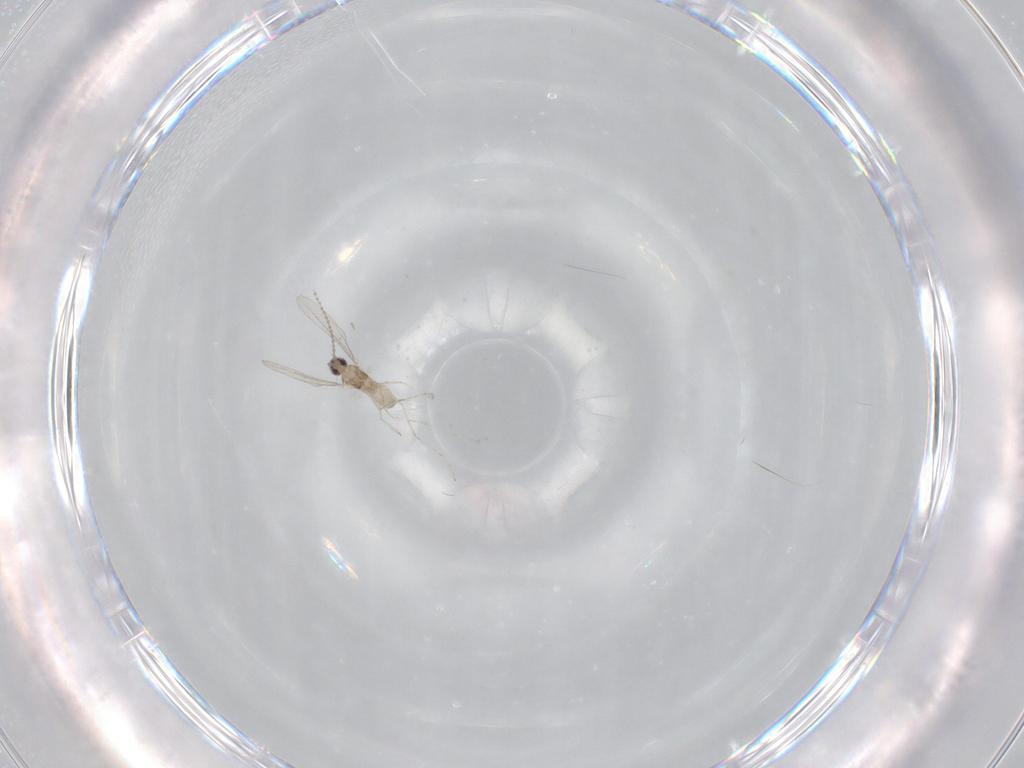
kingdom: Animalia
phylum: Arthropoda
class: Insecta
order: Diptera
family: Cecidomyiidae
